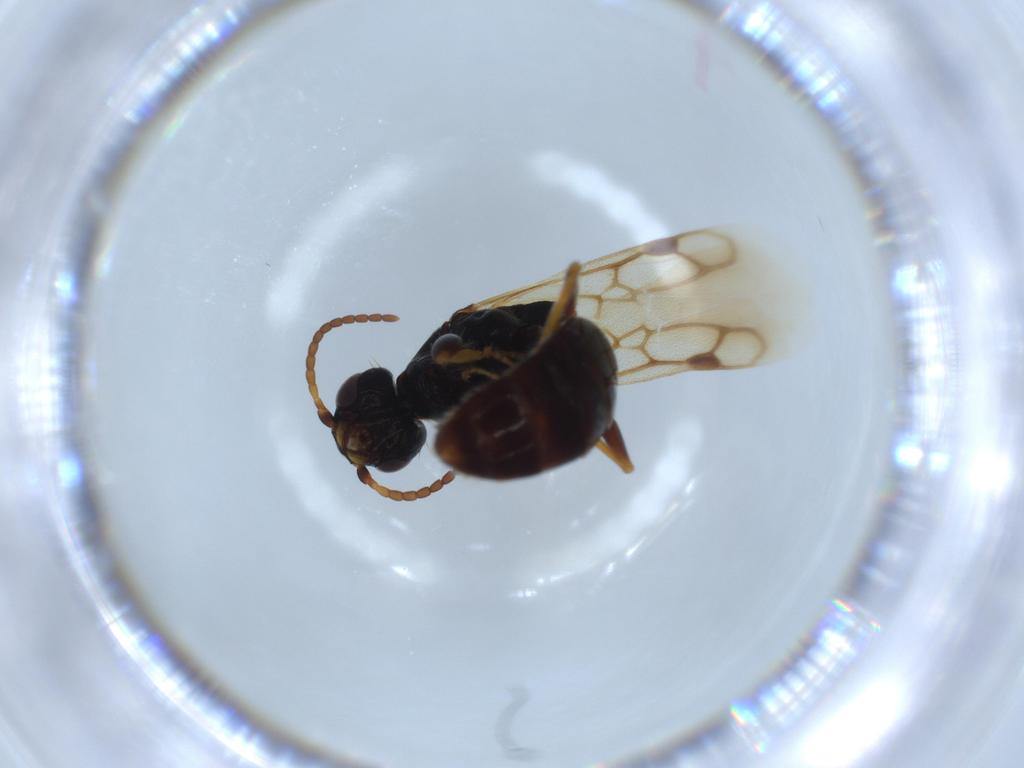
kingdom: Animalia
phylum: Arthropoda
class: Insecta
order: Hymenoptera
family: Bethylidae
